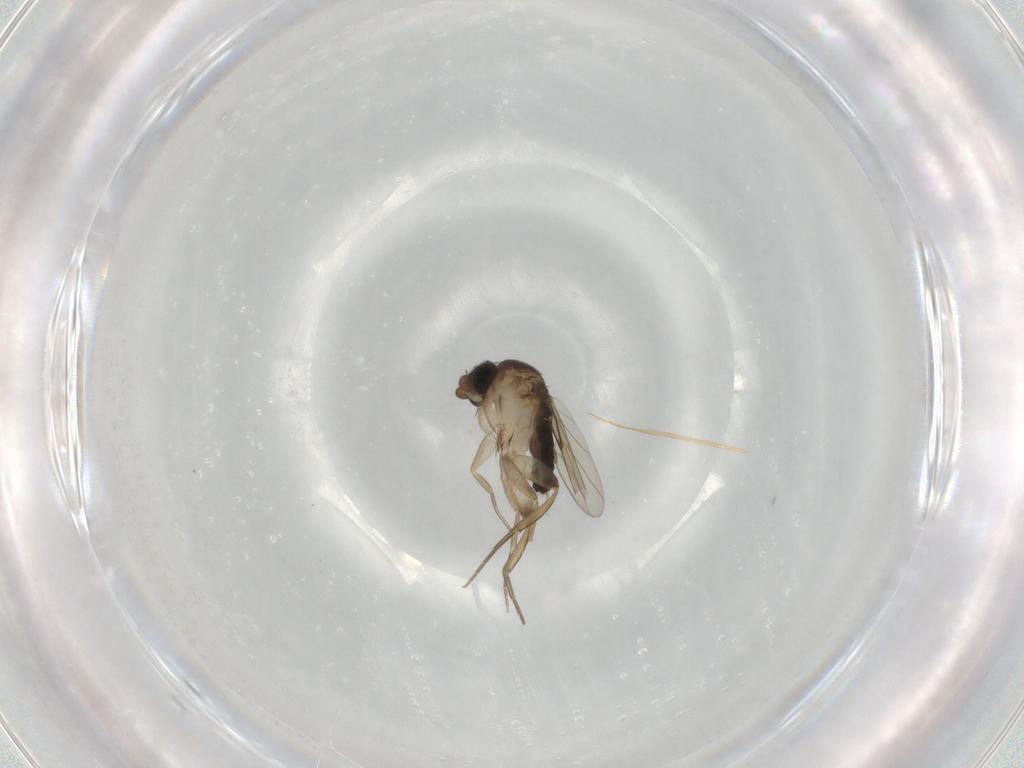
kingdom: Animalia
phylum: Arthropoda
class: Insecta
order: Diptera
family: Phoridae
